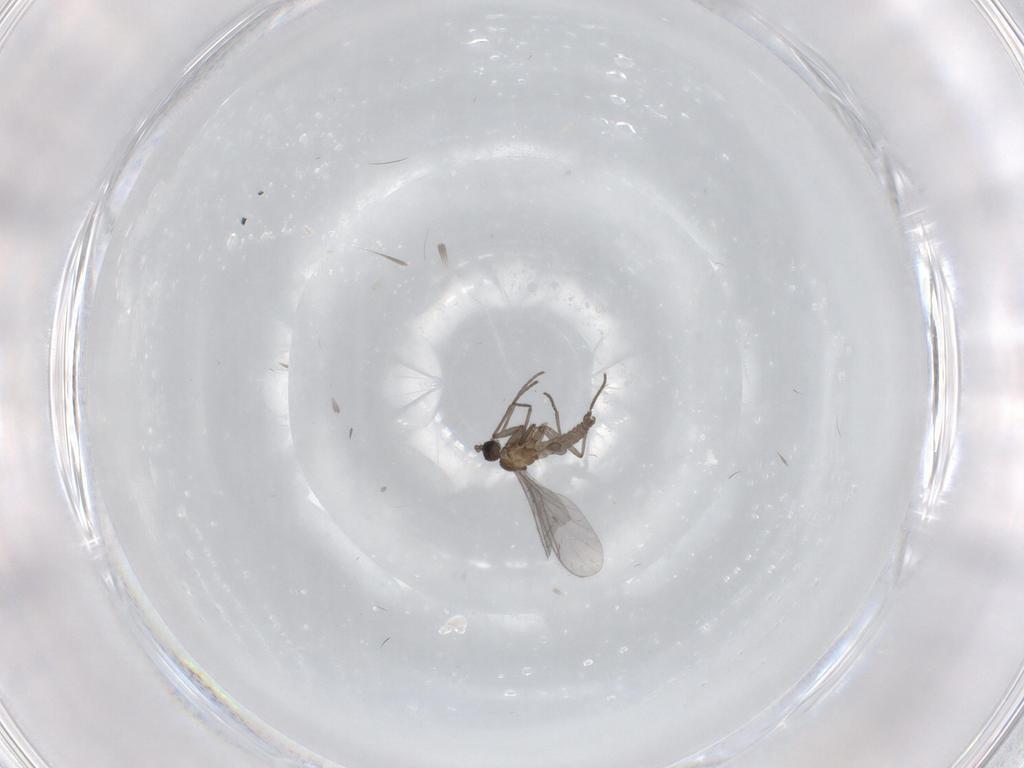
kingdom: Animalia
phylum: Arthropoda
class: Insecta
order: Diptera
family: Sciaridae
